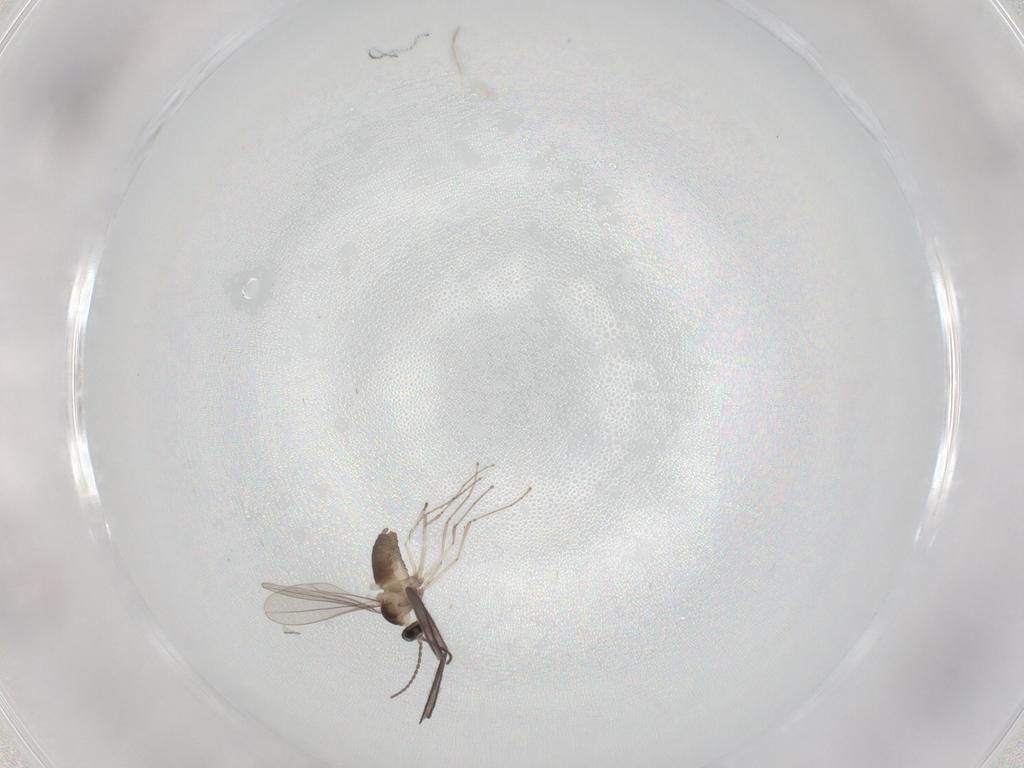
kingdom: Animalia
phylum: Arthropoda
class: Insecta
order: Diptera
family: Cecidomyiidae
